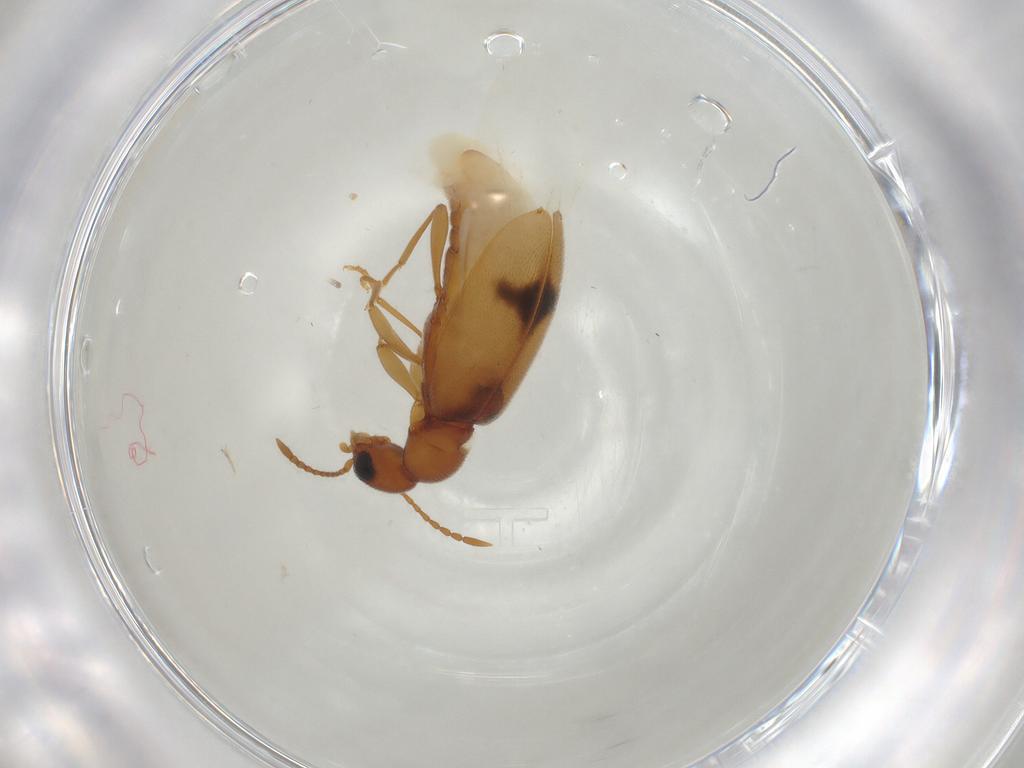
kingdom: Animalia
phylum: Arthropoda
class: Insecta
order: Coleoptera
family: Anthicidae
